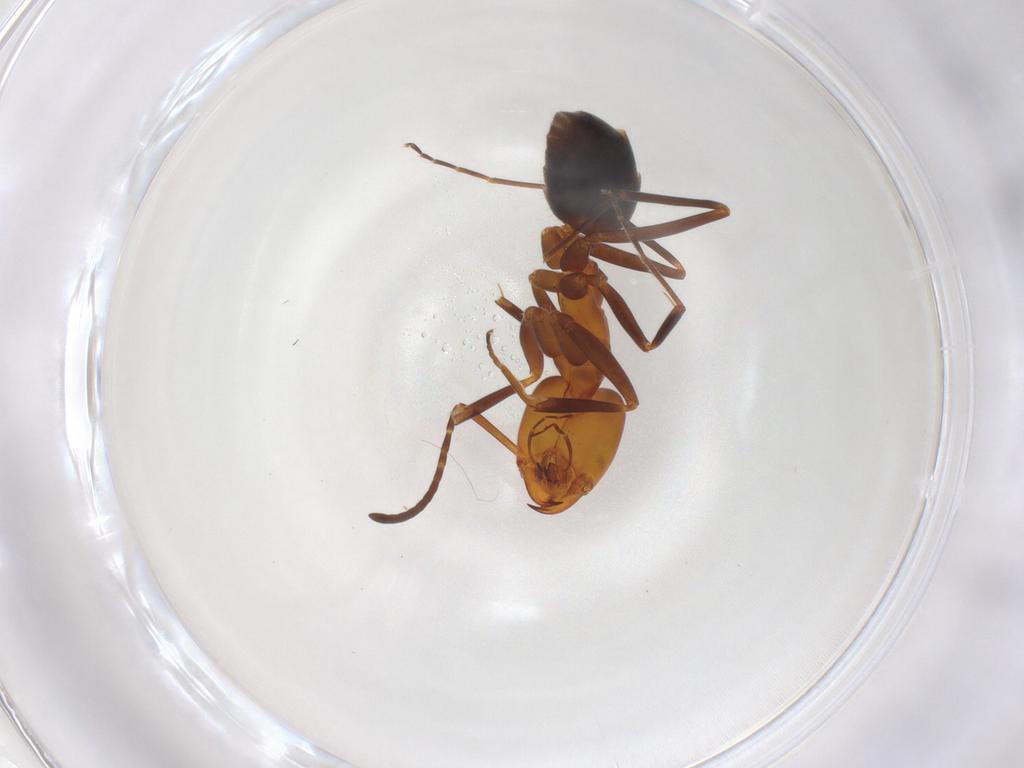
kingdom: Animalia
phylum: Arthropoda
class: Insecta
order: Hymenoptera
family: Formicidae
